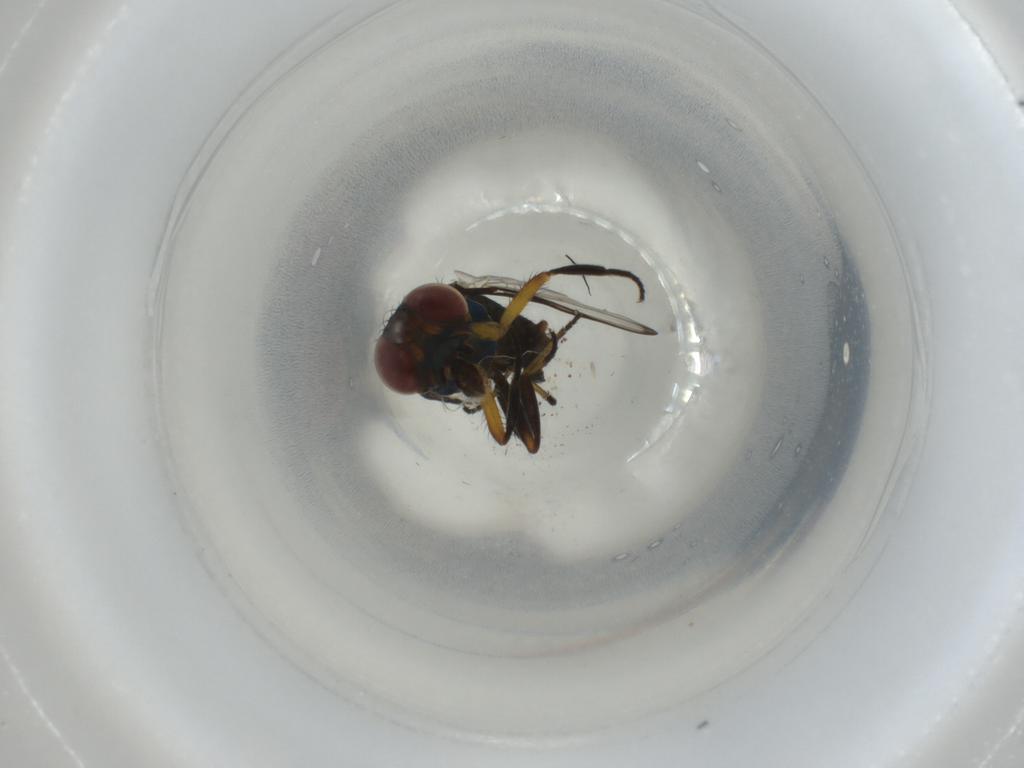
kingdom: Animalia
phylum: Arthropoda
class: Insecta
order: Diptera
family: Ulidiidae
